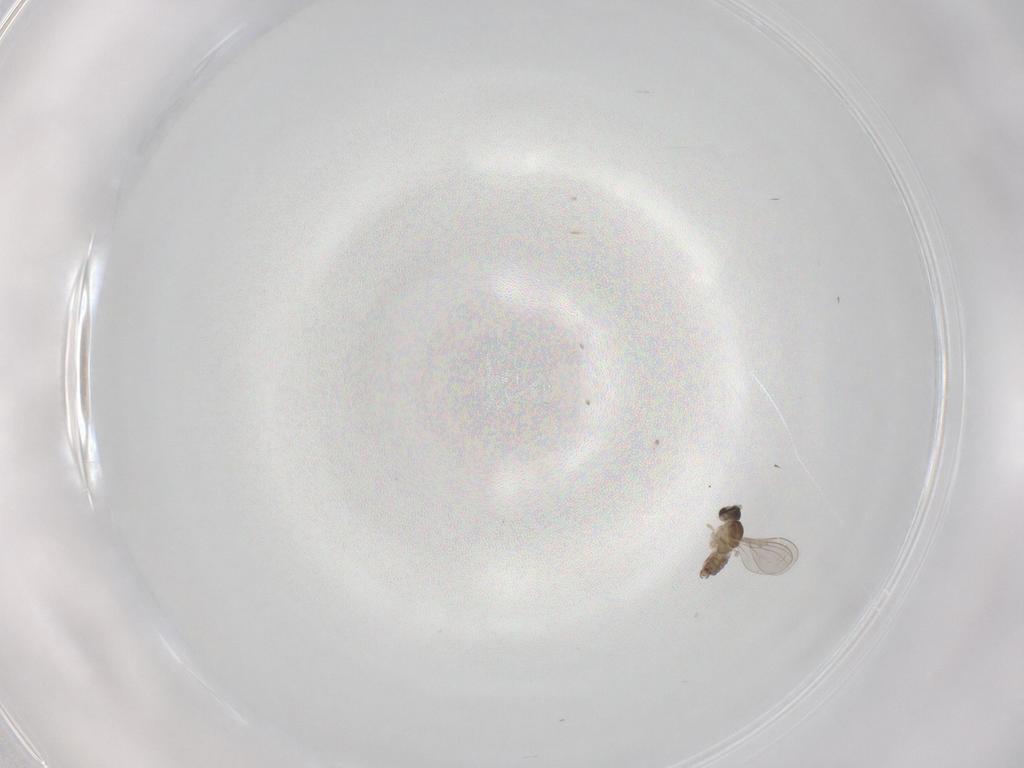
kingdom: Animalia
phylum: Arthropoda
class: Insecta
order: Diptera
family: Cecidomyiidae
